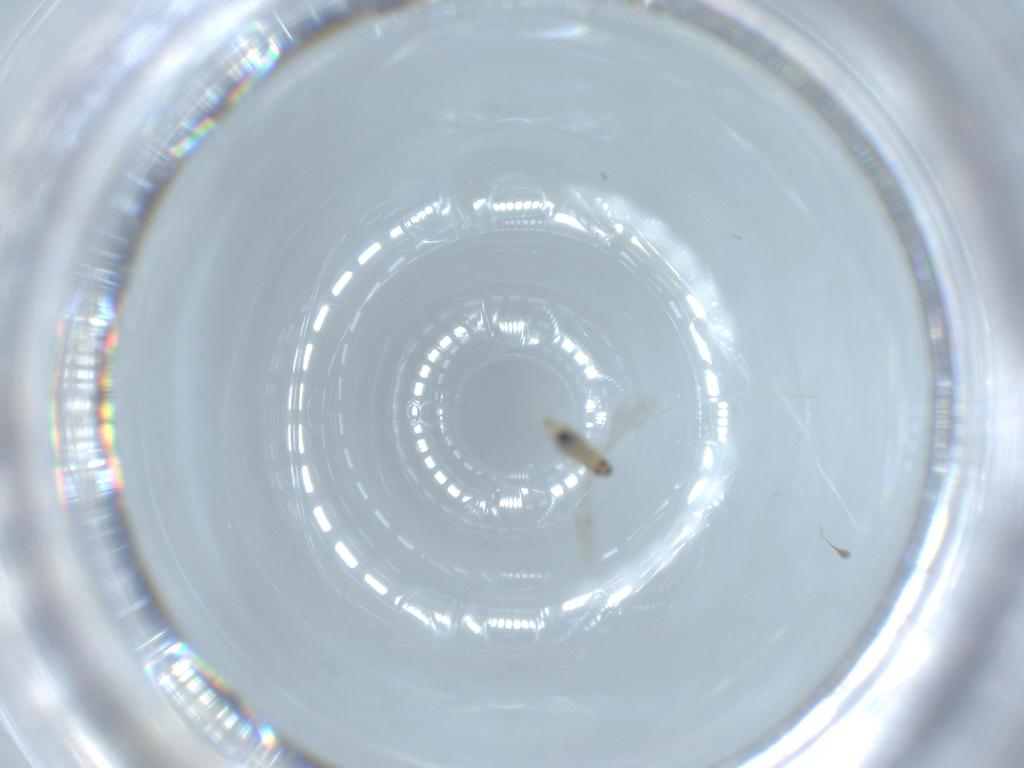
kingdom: Animalia
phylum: Arthropoda
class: Insecta
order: Diptera
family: Cecidomyiidae
